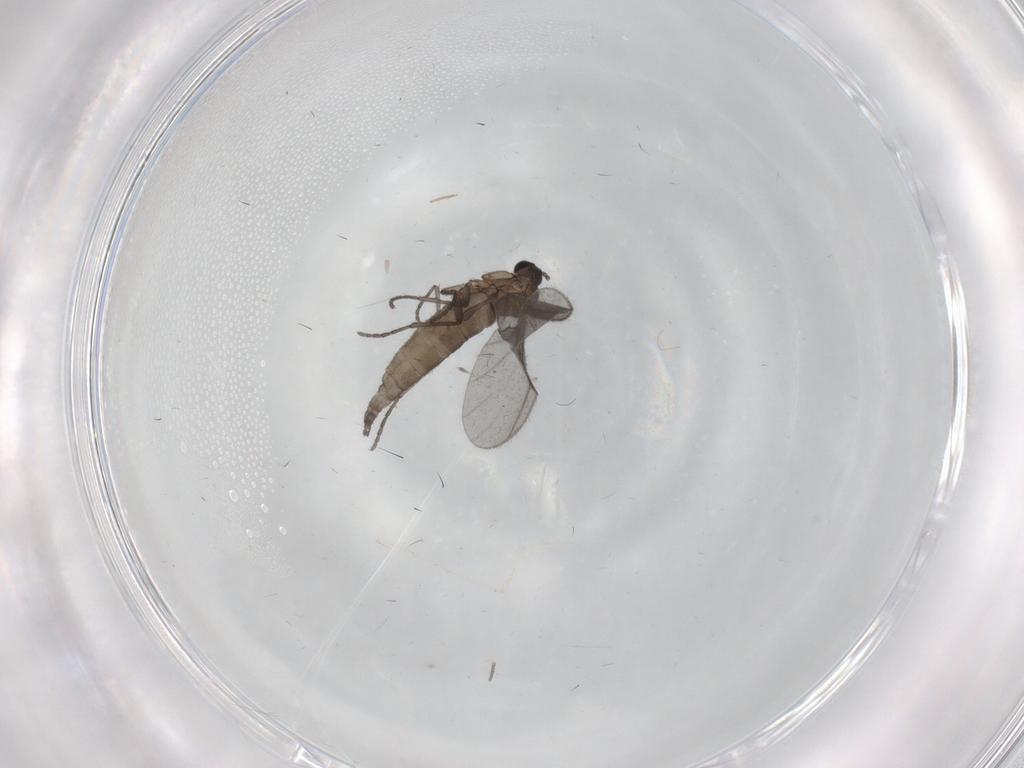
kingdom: Animalia
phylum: Arthropoda
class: Insecta
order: Diptera
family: Sciaridae
